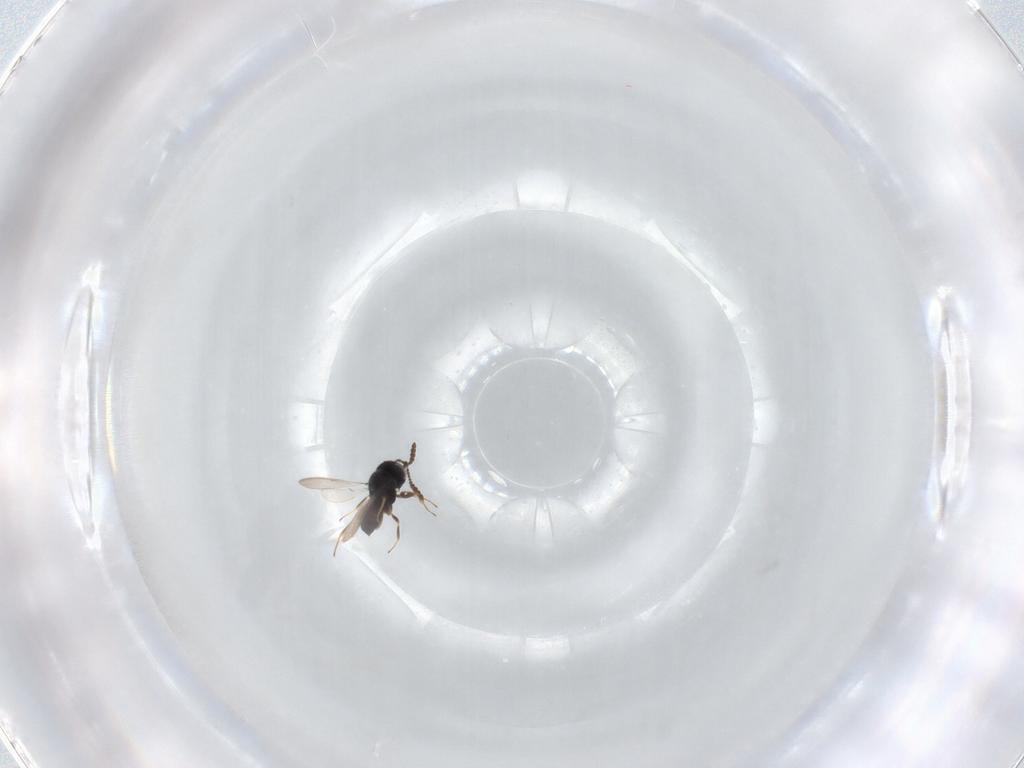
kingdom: Animalia
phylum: Arthropoda
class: Insecta
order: Hymenoptera
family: Braconidae
